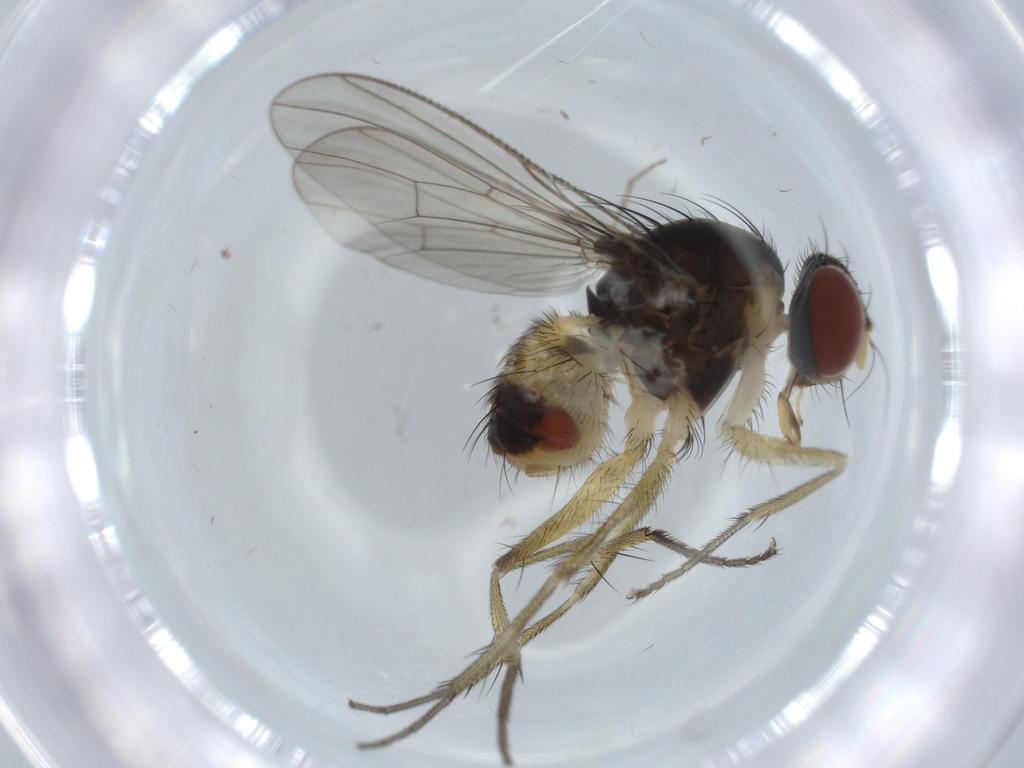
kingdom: Animalia
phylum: Arthropoda
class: Insecta
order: Diptera
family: Muscidae
